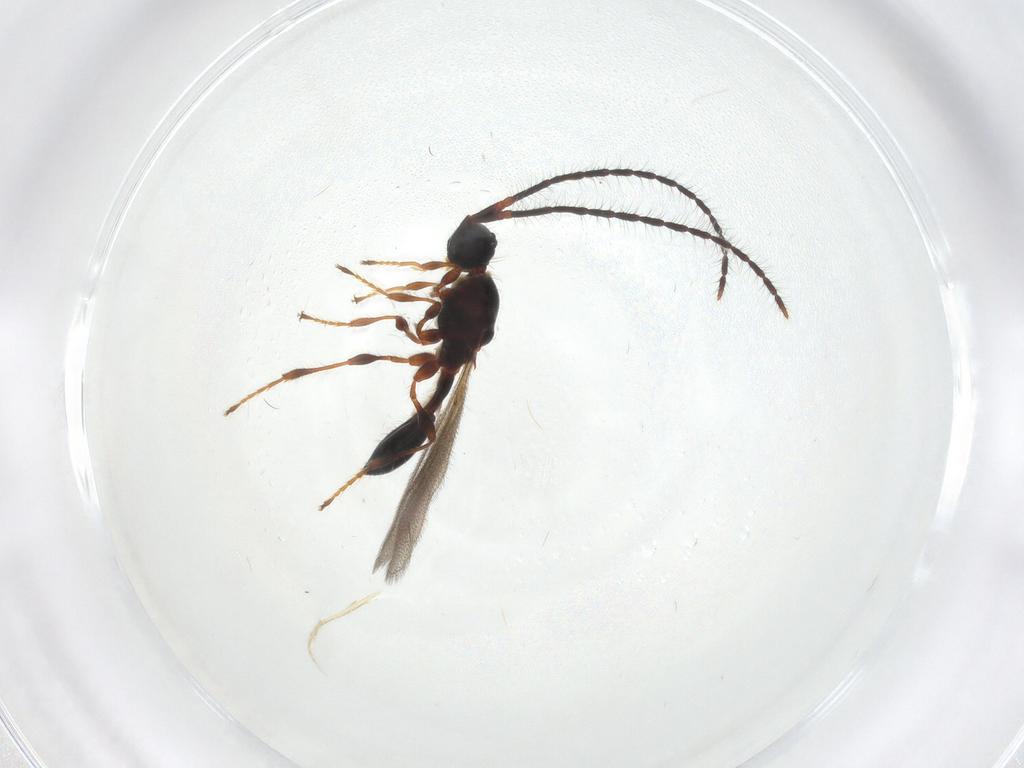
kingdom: Animalia
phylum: Arthropoda
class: Insecta
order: Hymenoptera
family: Diapriidae
